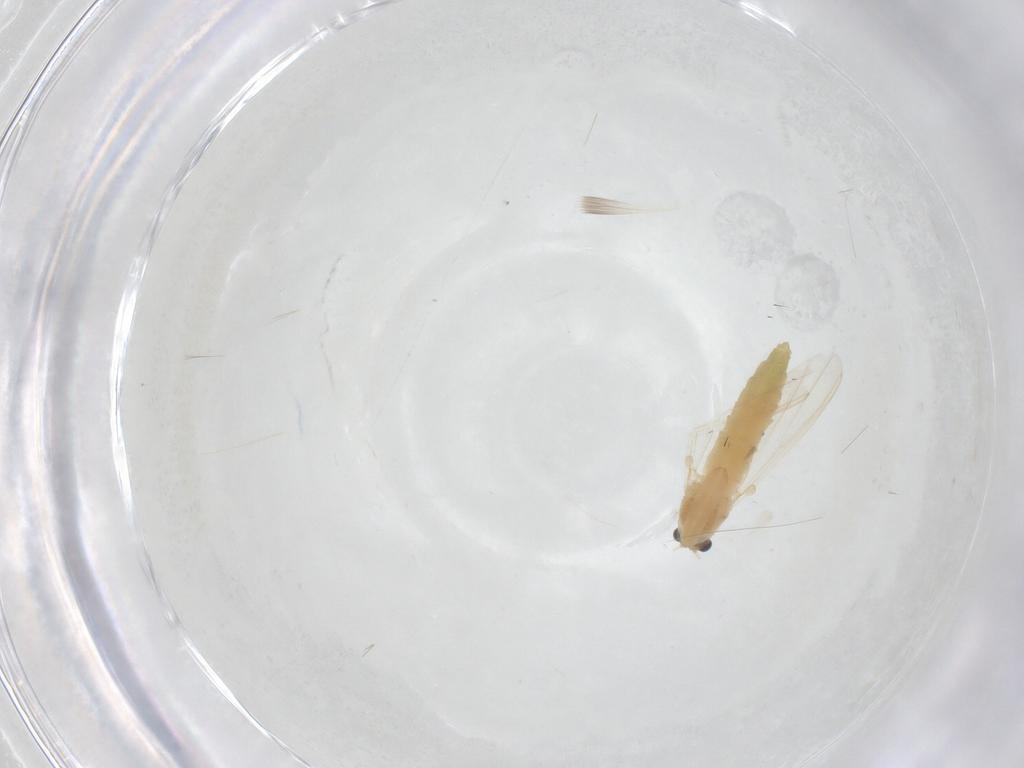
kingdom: Animalia
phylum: Arthropoda
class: Insecta
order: Diptera
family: Chironomidae
